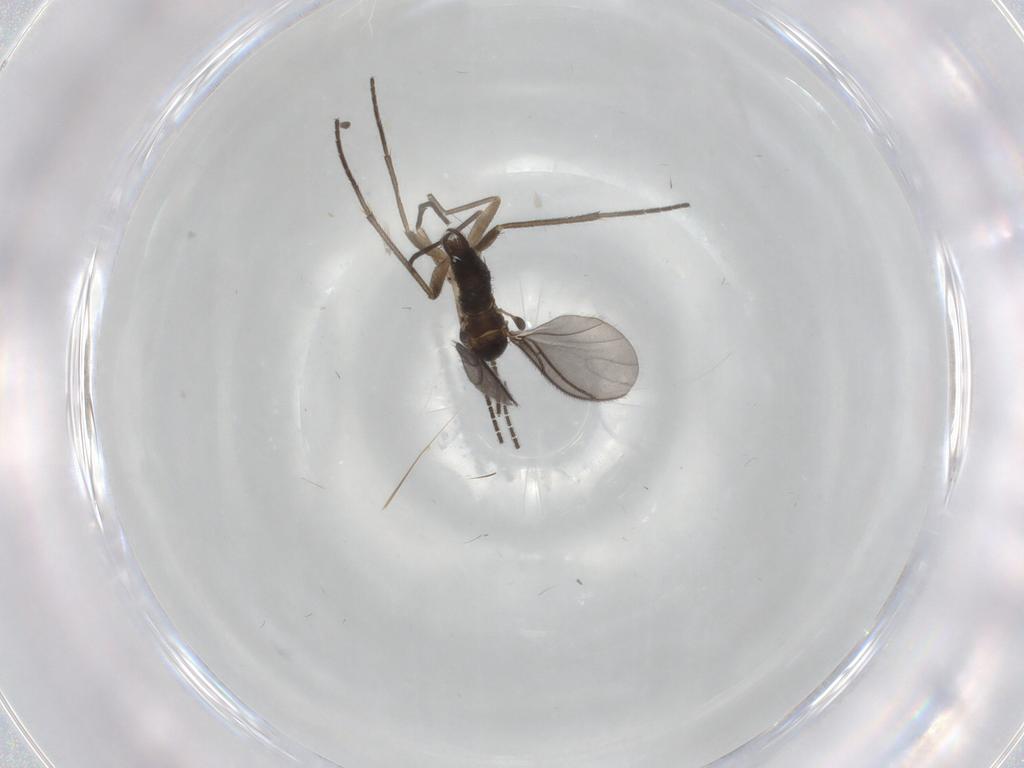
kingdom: Animalia
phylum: Arthropoda
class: Insecta
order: Diptera
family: Sciaridae
